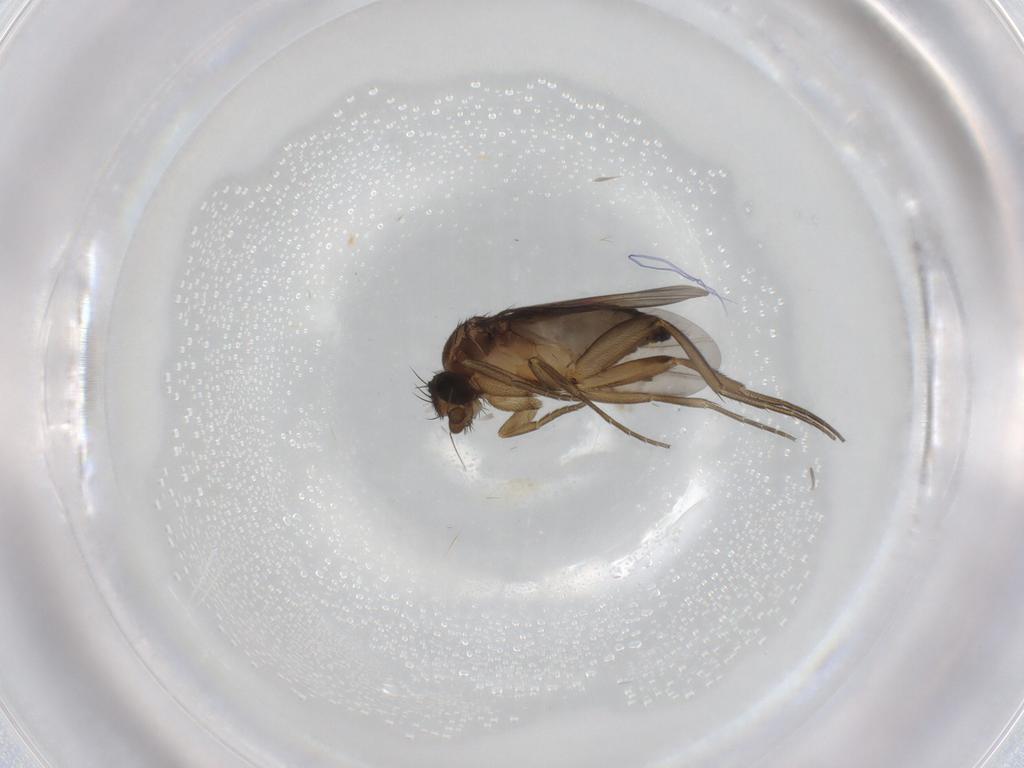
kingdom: Animalia
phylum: Arthropoda
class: Insecta
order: Diptera
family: Phoridae
